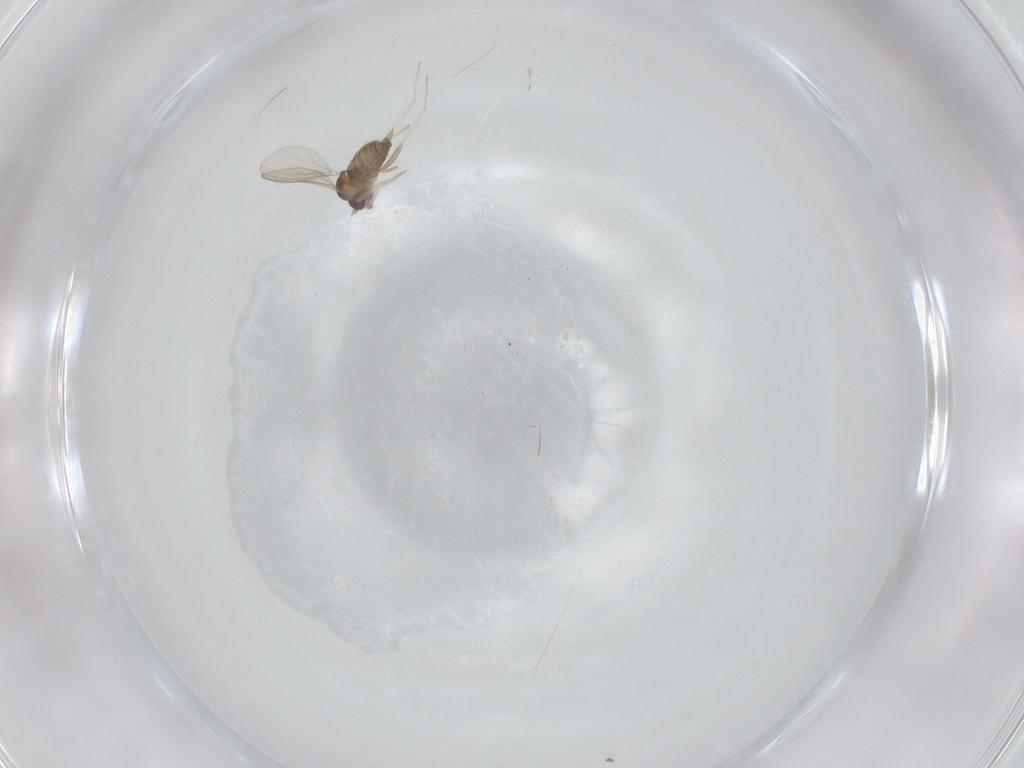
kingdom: Animalia
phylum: Arthropoda
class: Insecta
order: Diptera
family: Cecidomyiidae
